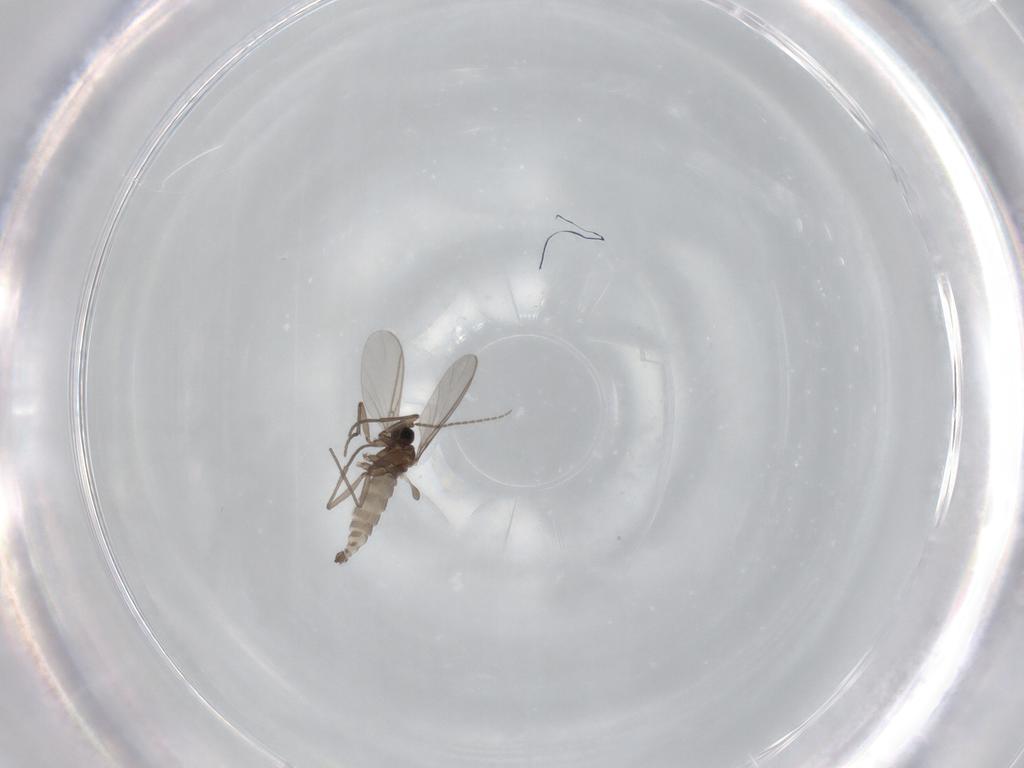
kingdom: Animalia
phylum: Arthropoda
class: Insecta
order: Diptera
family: Sciaridae
